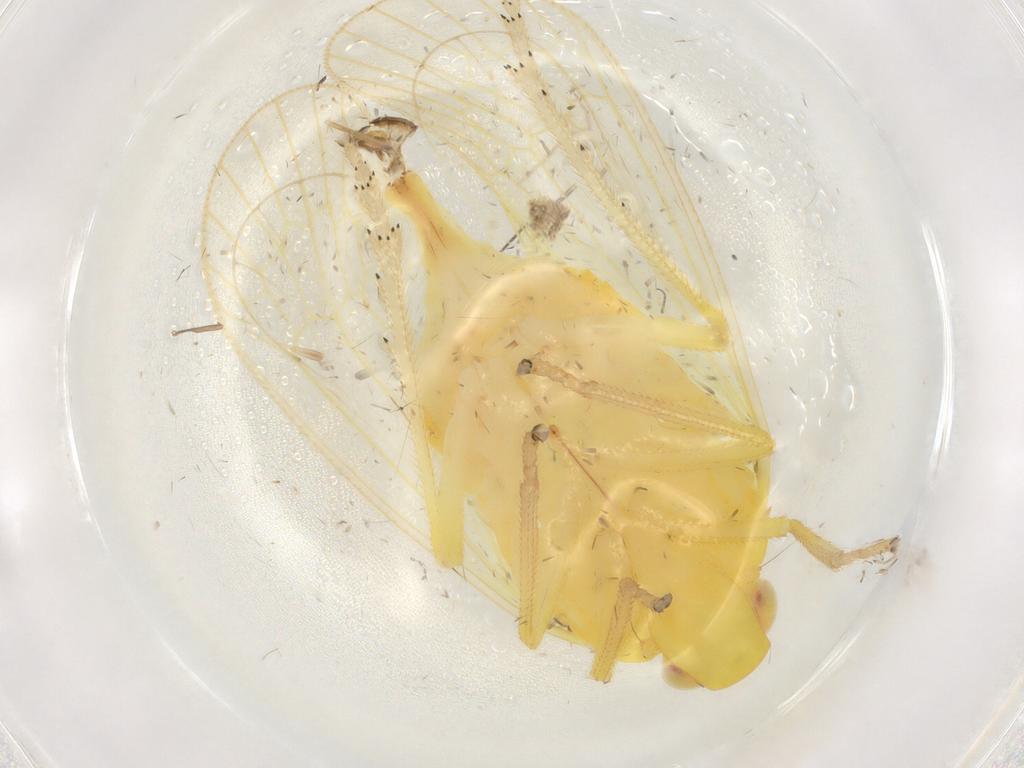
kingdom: Animalia
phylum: Arthropoda
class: Insecta
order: Hemiptera
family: Tropiduchidae
